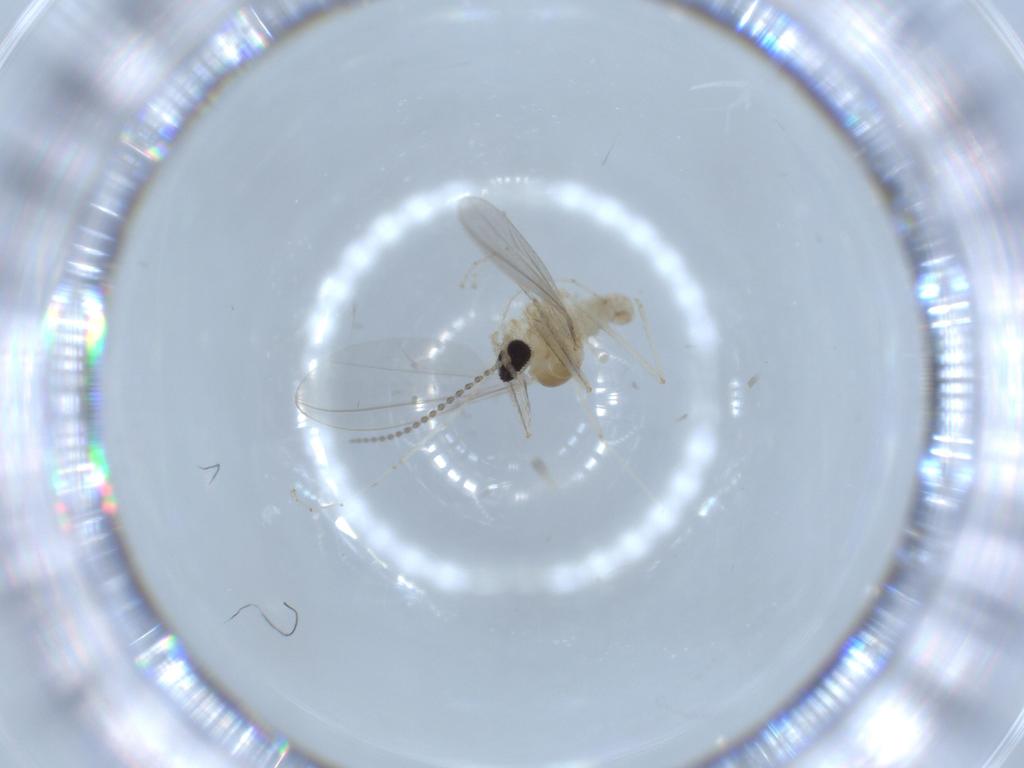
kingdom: Animalia
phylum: Arthropoda
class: Insecta
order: Diptera
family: Cecidomyiidae
